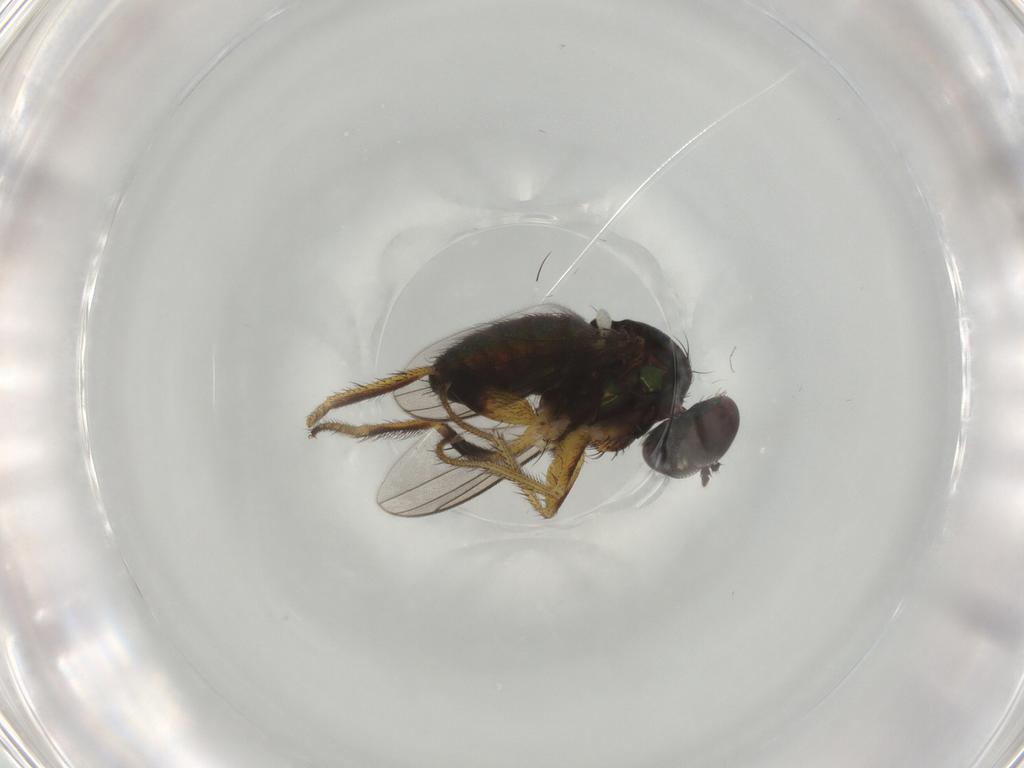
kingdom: Animalia
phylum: Arthropoda
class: Insecta
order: Diptera
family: Dolichopodidae
